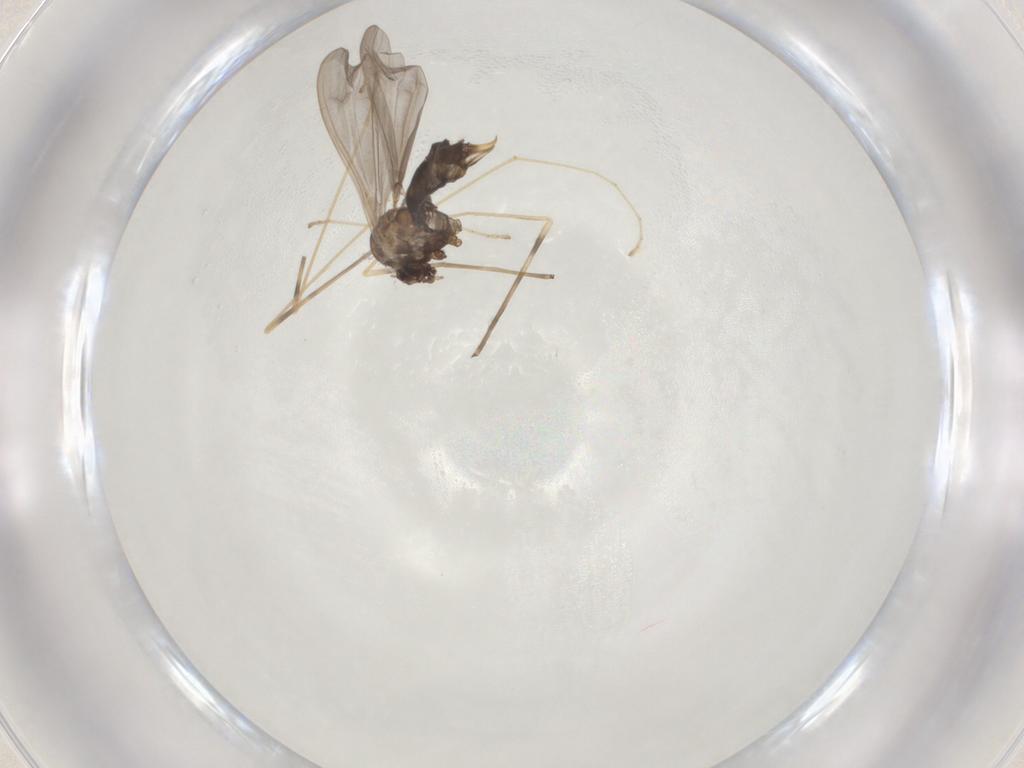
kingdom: Animalia
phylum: Arthropoda
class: Insecta
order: Diptera
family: Limoniidae
